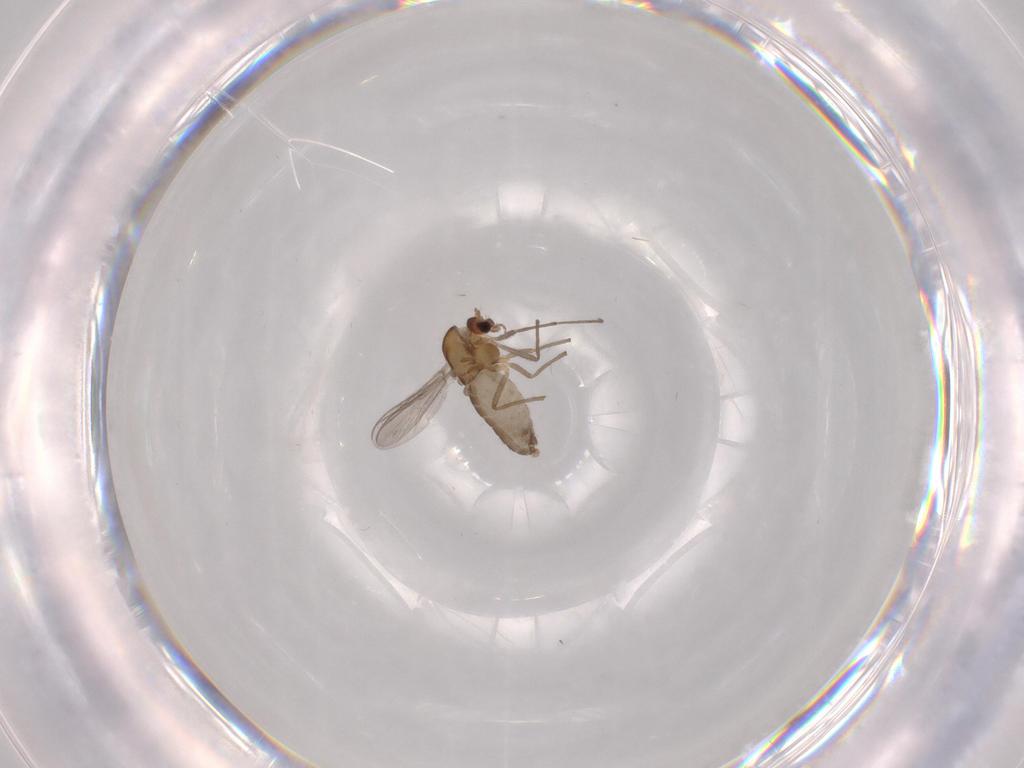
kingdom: Animalia
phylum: Arthropoda
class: Insecta
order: Diptera
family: Chironomidae
